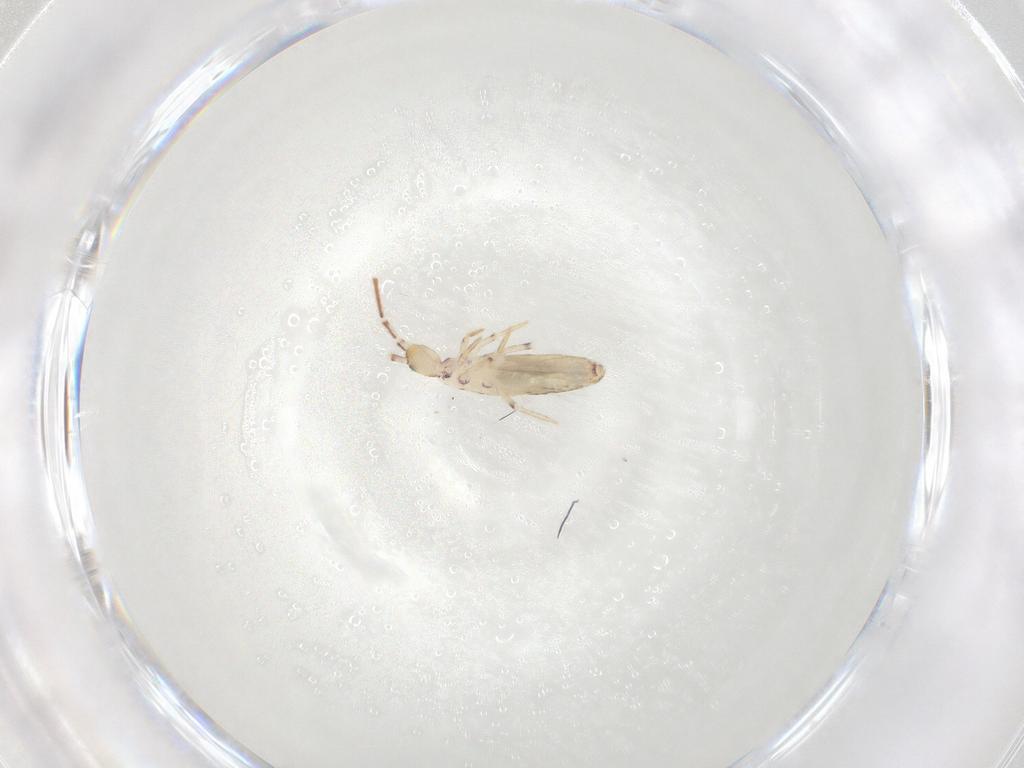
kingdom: Animalia
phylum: Arthropoda
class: Collembola
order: Entomobryomorpha
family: Entomobryidae
